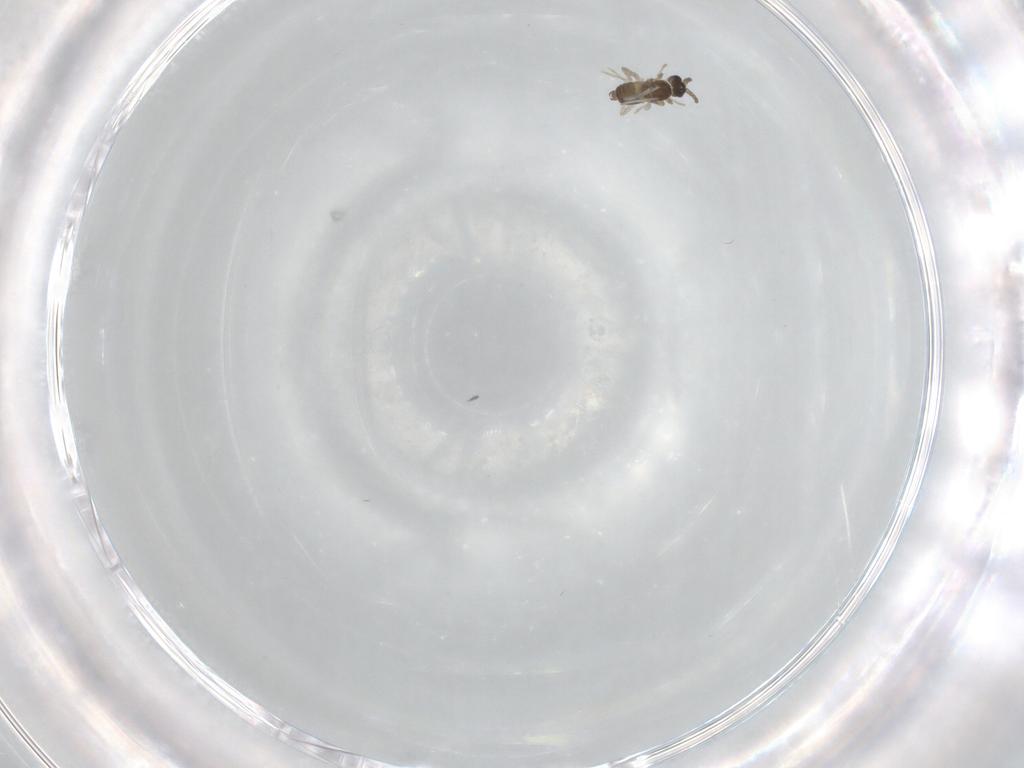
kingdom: Animalia
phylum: Arthropoda
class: Insecta
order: Diptera
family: Cecidomyiidae
